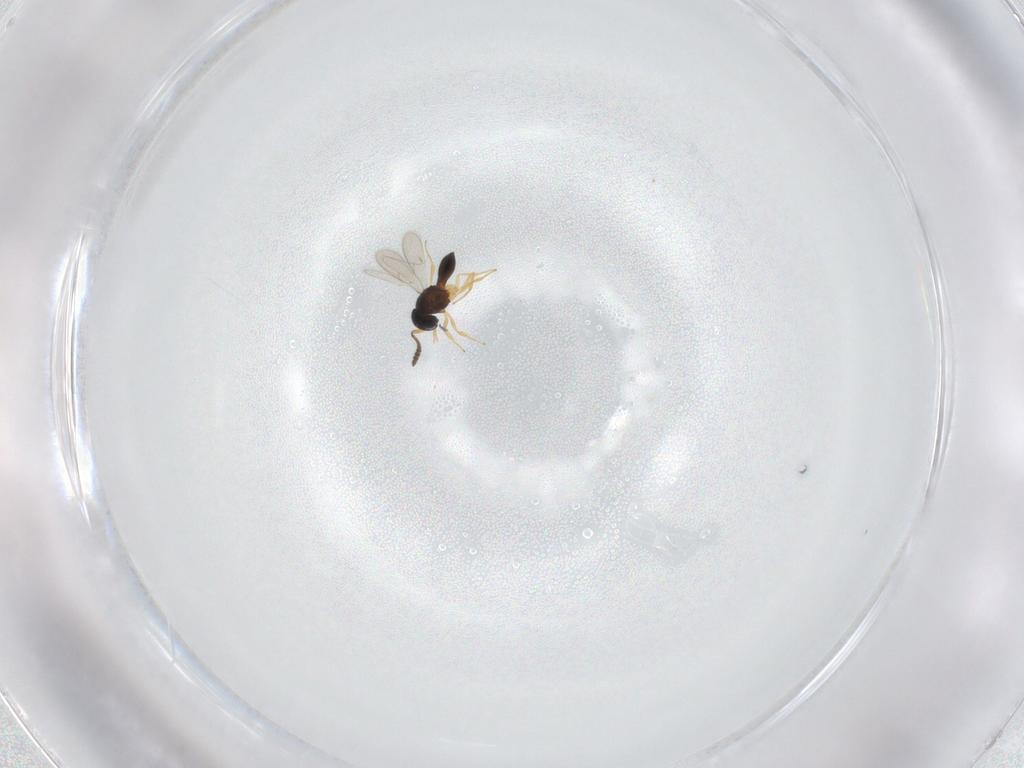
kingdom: Animalia
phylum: Arthropoda
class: Insecta
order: Hymenoptera
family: Scelionidae
